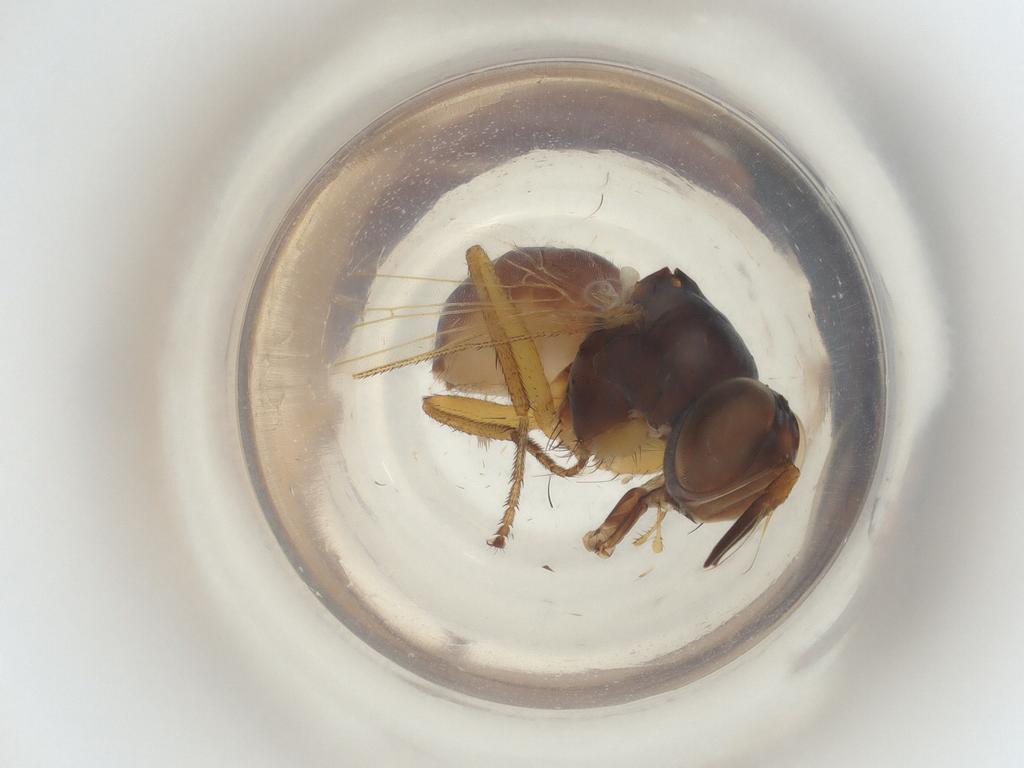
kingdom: Animalia
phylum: Arthropoda
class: Insecta
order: Diptera
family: Muscidae
